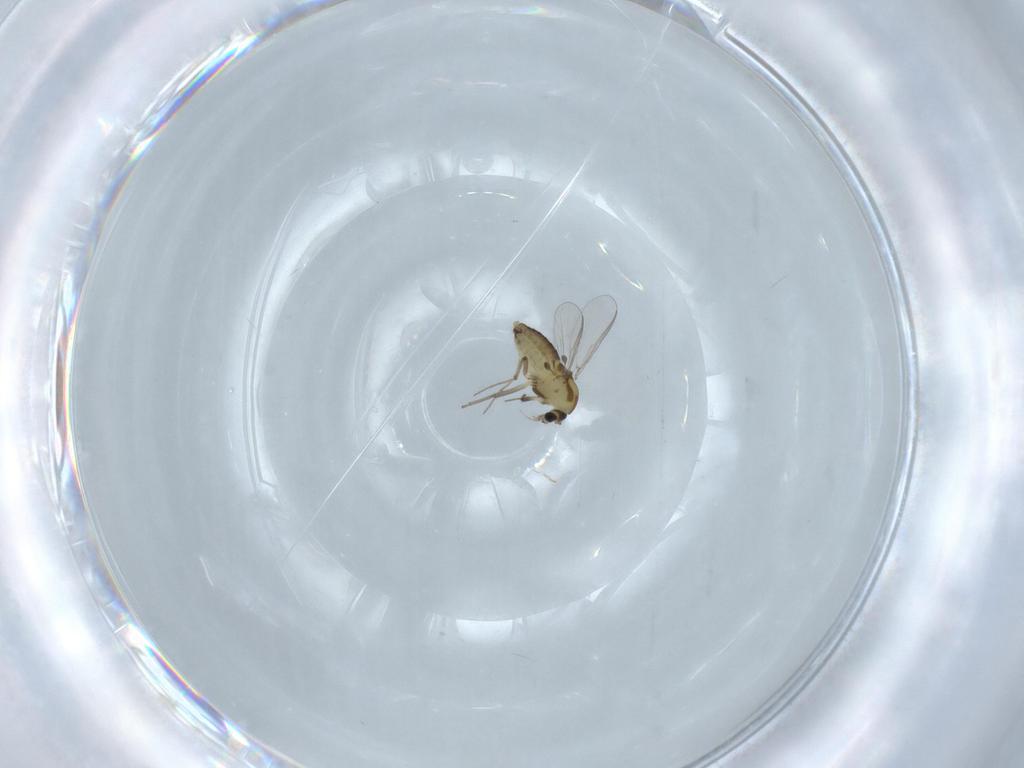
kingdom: Animalia
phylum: Arthropoda
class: Insecta
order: Diptera
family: Chironomidae
